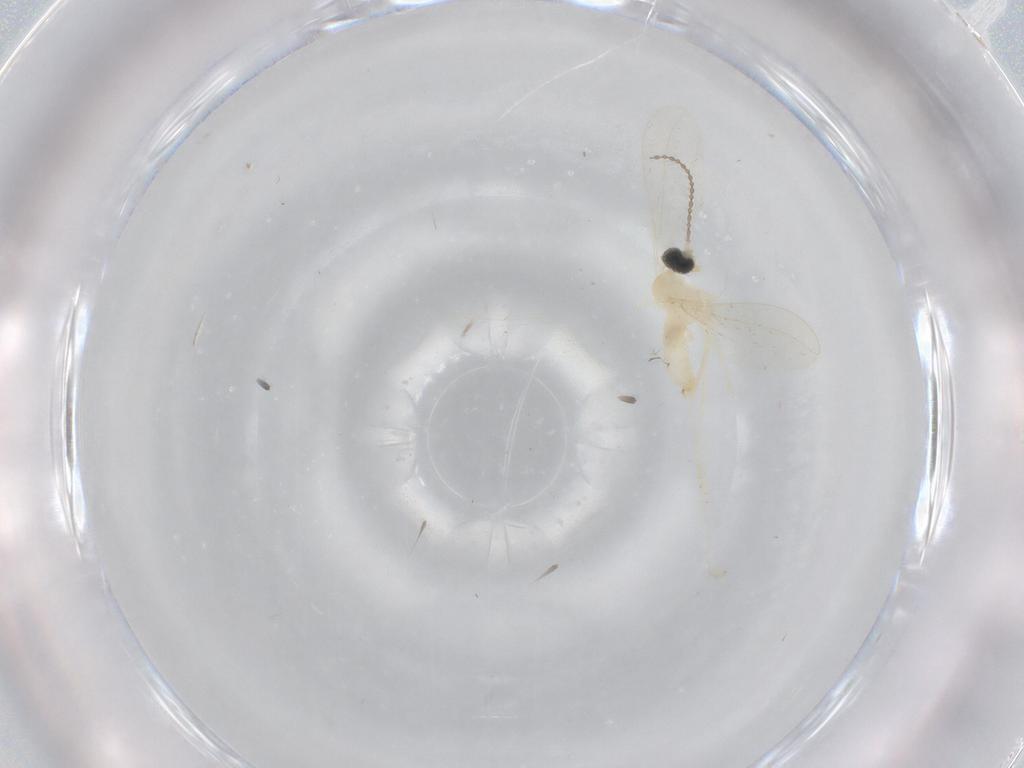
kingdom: Animalia
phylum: Arthropoda
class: Insecta
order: Diptera
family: Cecidomyiidae
